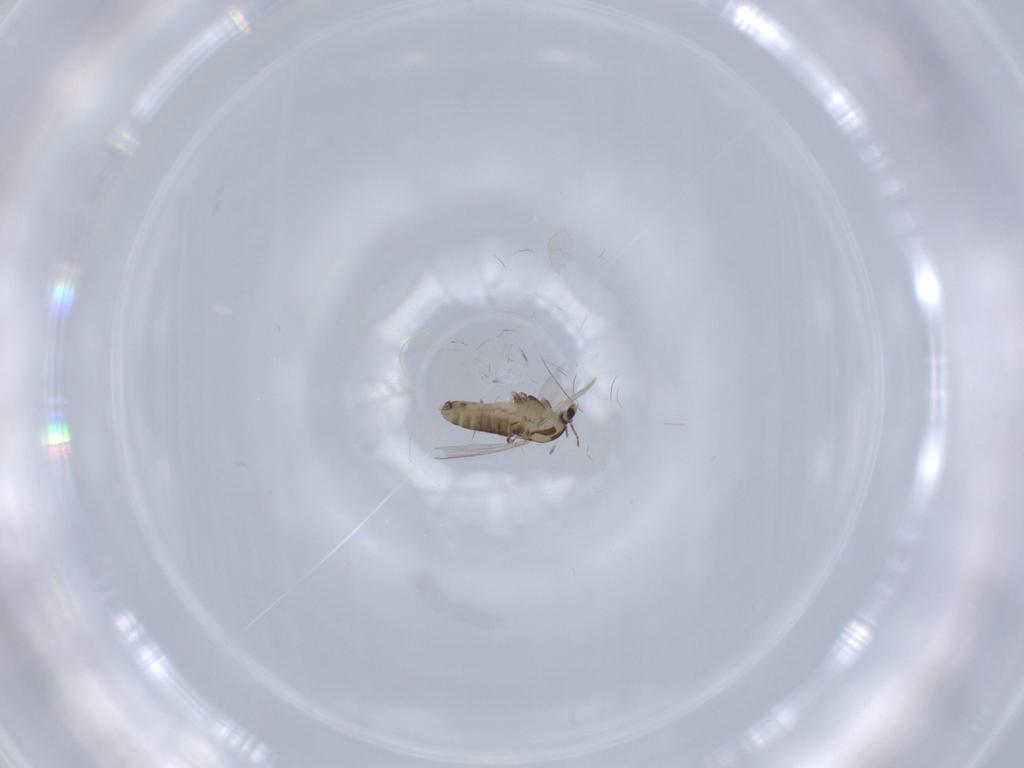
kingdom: Animalia
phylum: Arthropoda
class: Insecta
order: Diptera
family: Chironomidae
